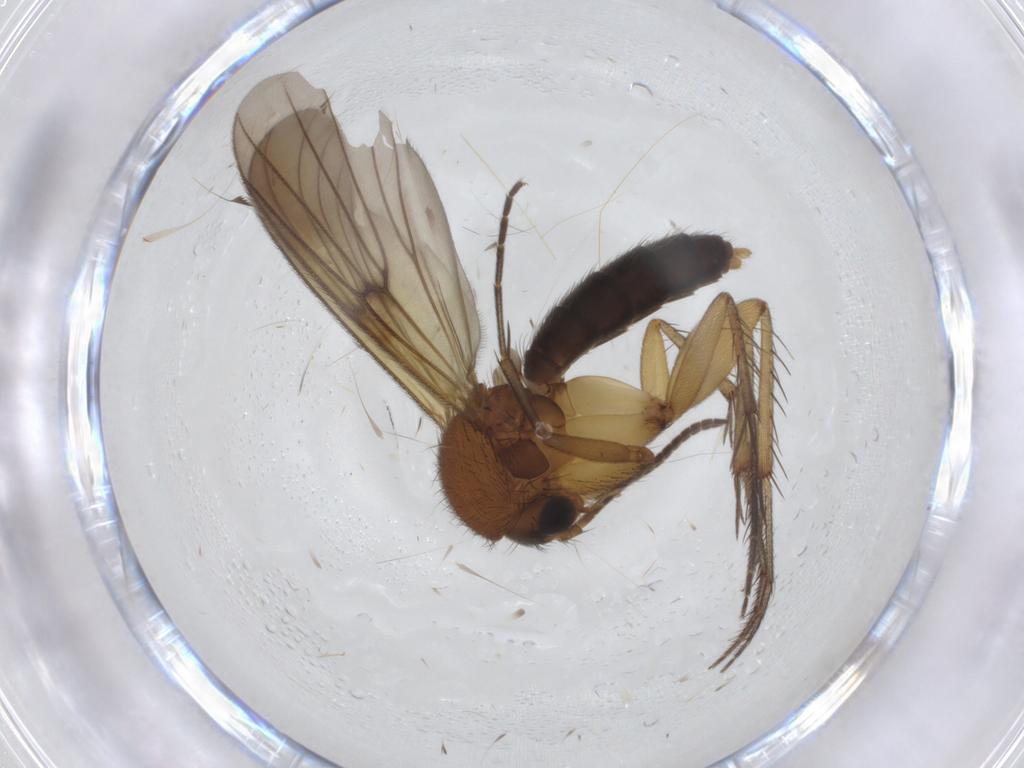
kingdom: Animalia
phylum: Arthropoda
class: Insecta
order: Diptera
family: Mycetophilidae
